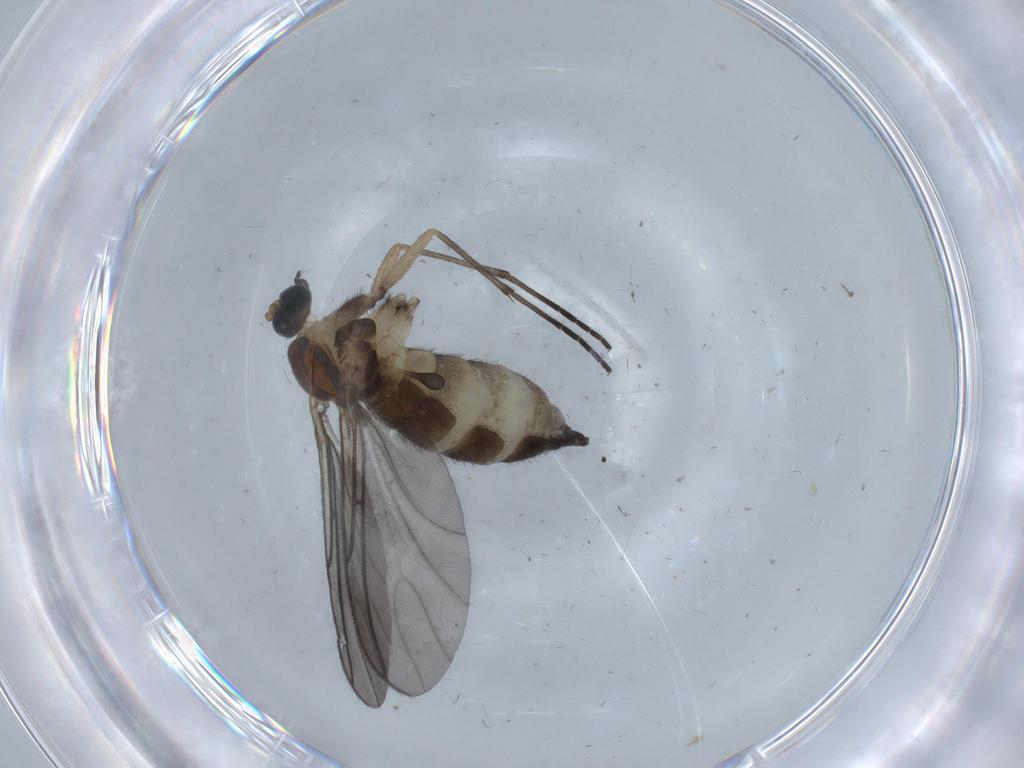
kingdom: Animalia
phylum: Arthropoda
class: Insecta
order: Diptera
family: Sciaridae
